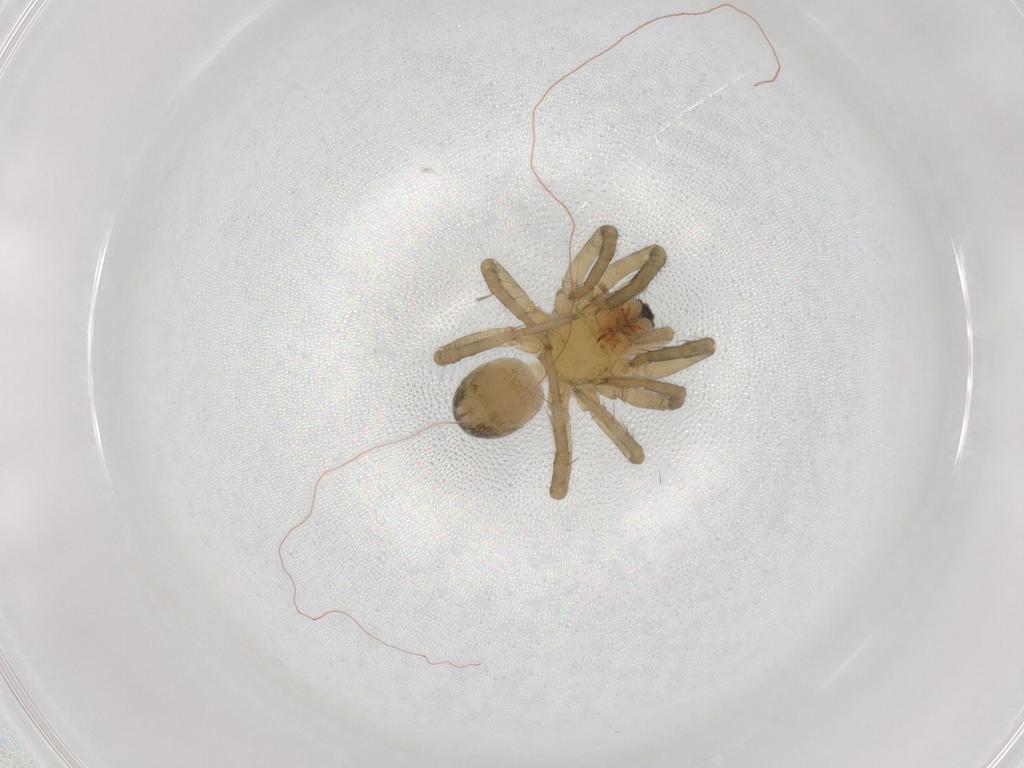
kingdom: Animalia
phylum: Arthropoda
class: Arachnida
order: Araneae
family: Lycosidae
